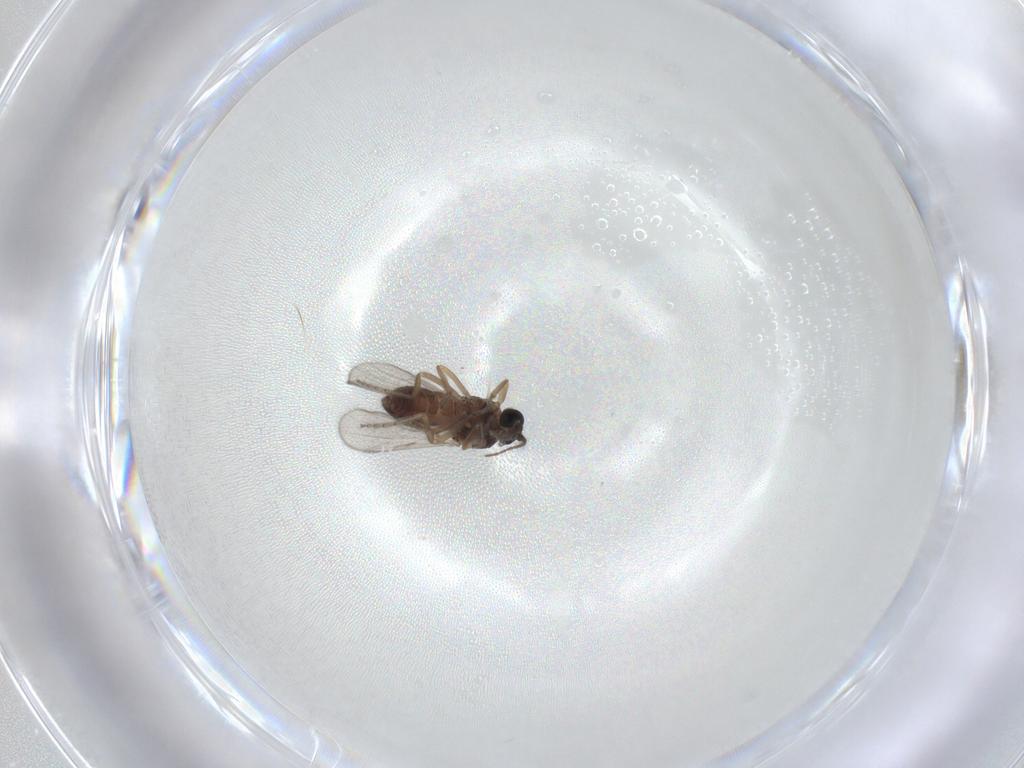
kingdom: Animalia
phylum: Arthropoda
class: Insecta
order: Diptera
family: Ceratopogonidae
